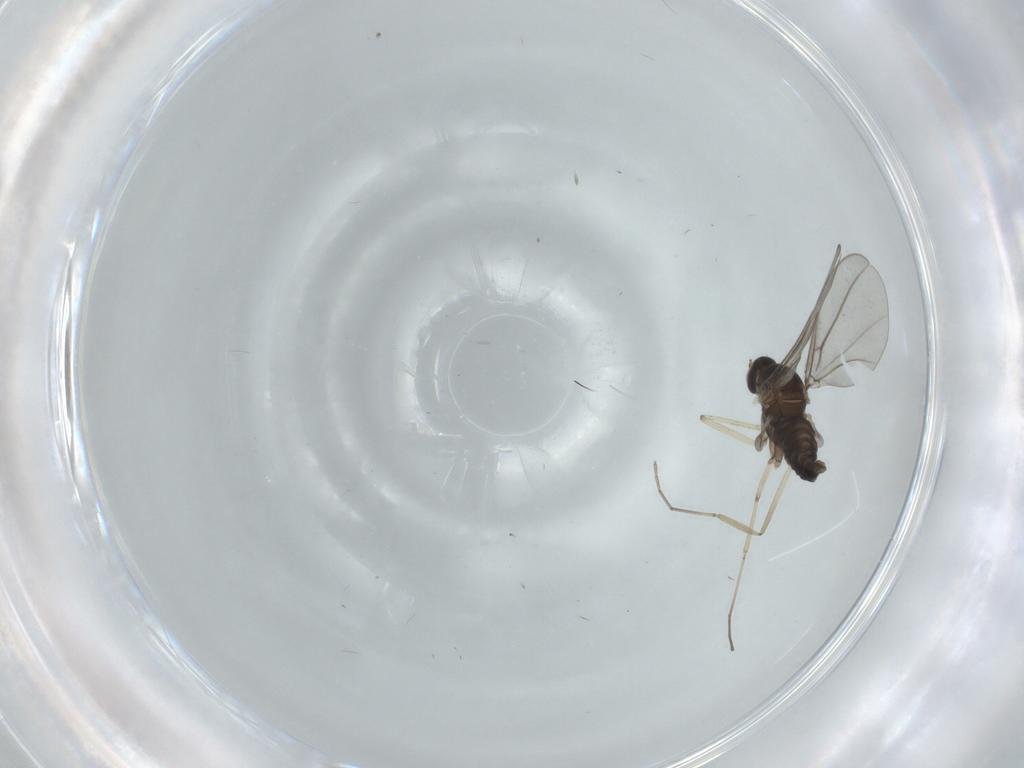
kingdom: Animalia
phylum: Arthropoda
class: Insecta
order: Diptera
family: Cecidomyiidae
